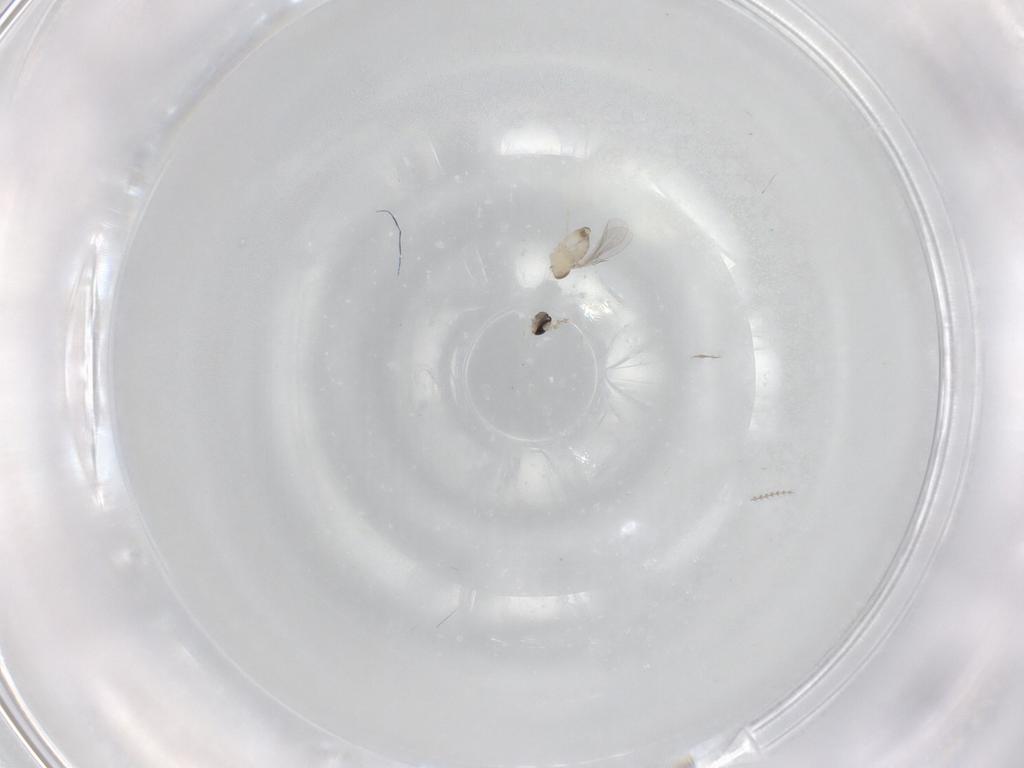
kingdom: Animalia
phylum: Arthropoda
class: Insecta
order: Diptera
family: Cecidomyiidae
